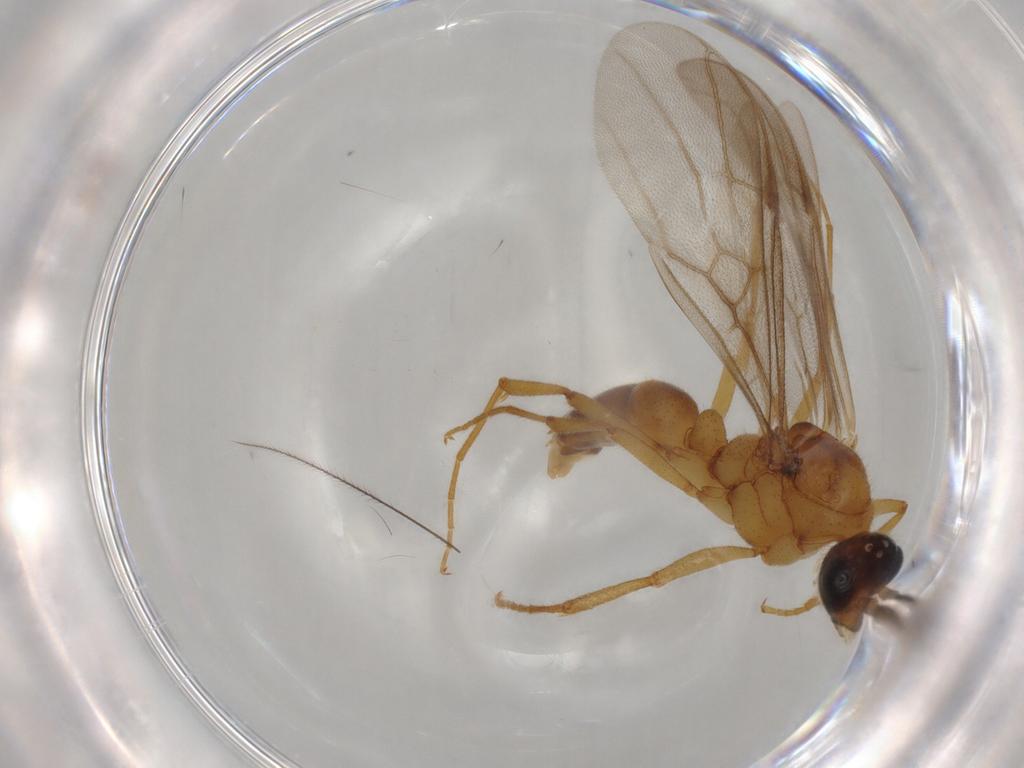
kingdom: Animalia
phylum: Arthropoda
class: Insecta
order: Hymenoptera
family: Formicidae
